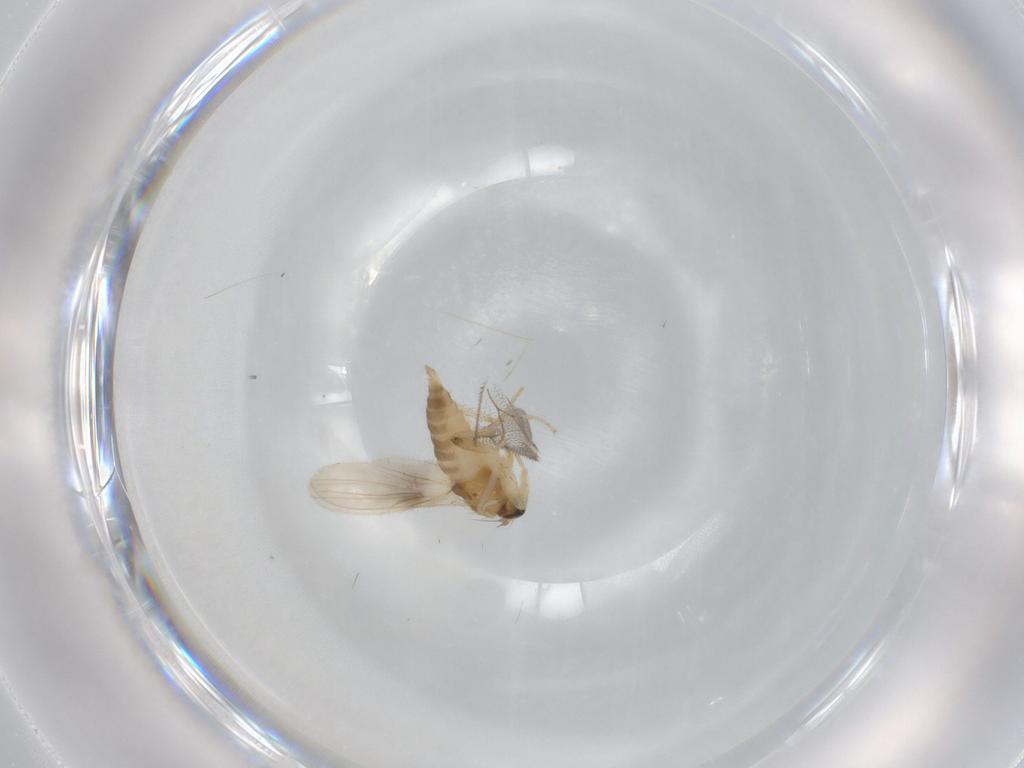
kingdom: Animalia
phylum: Arthropoda
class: Insecta
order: Diptera
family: Hybotidae
